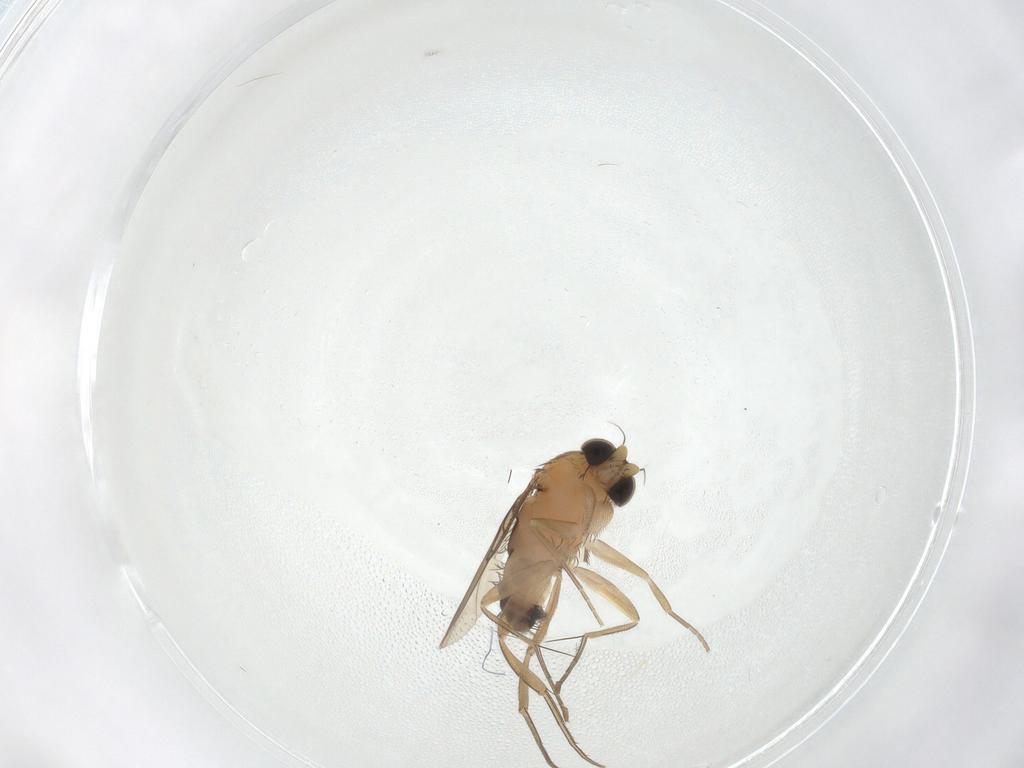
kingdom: Animalia
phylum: Arthropoda
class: Insecta
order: Diptera
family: Phoridae
